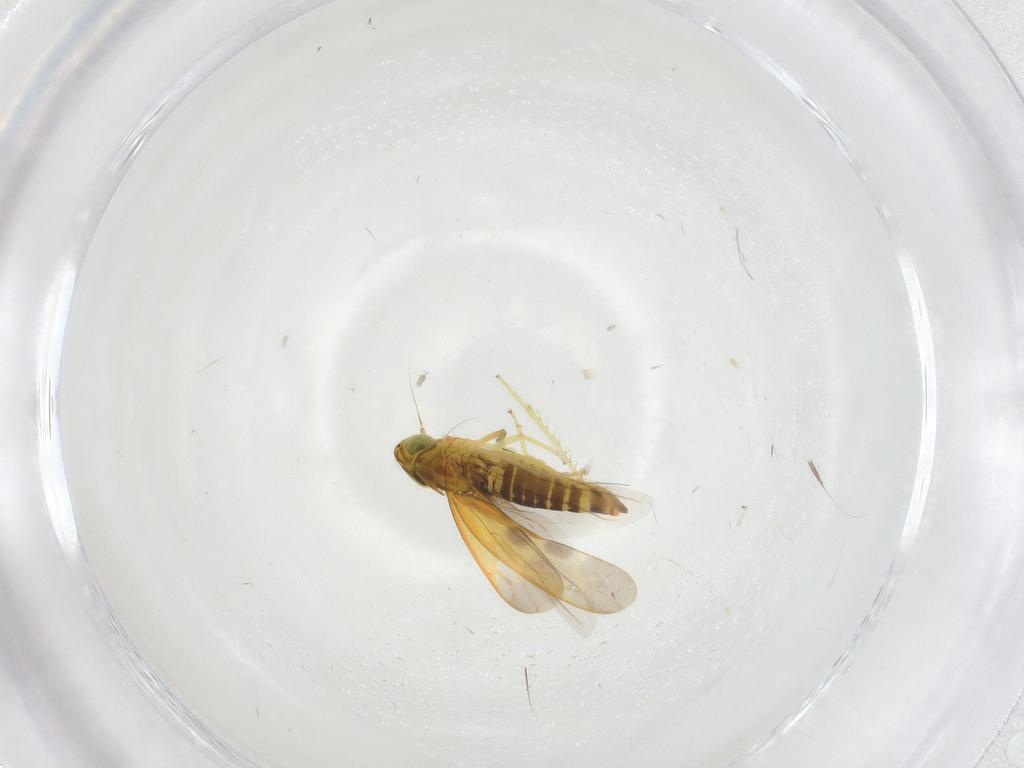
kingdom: Animalia
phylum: Arthropoda
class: Insecta
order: Hemiptera
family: Cicadellidae
